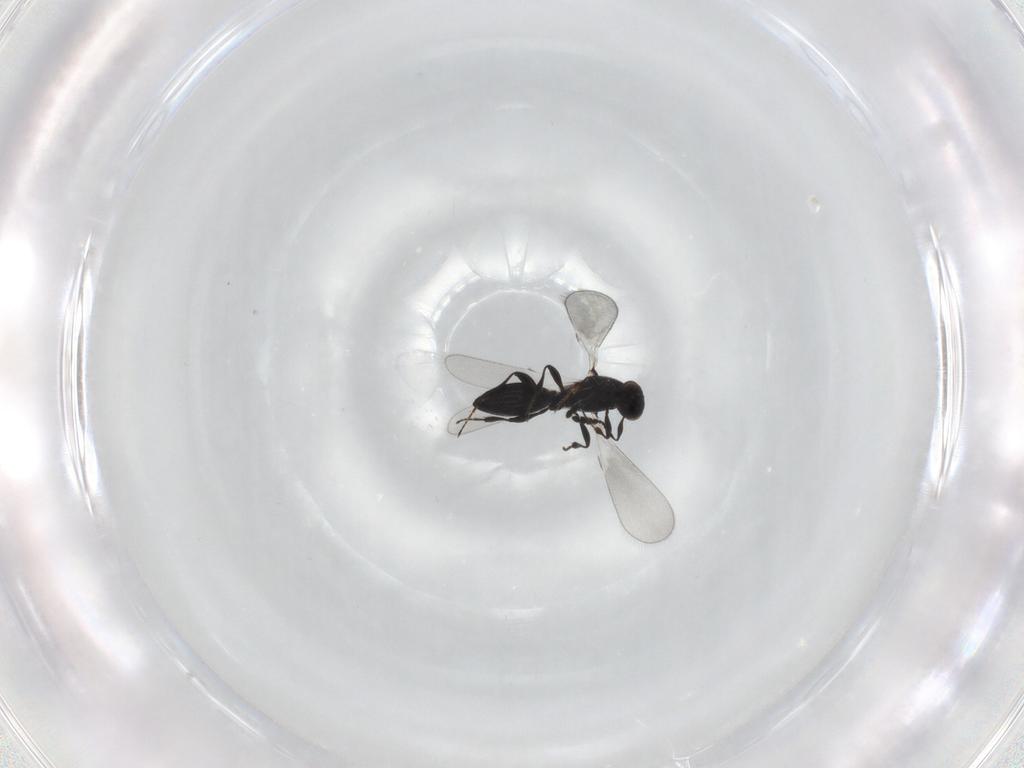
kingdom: Animalia
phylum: Arthropoda
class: Insecta
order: Hymenoptera
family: Platygastridae
